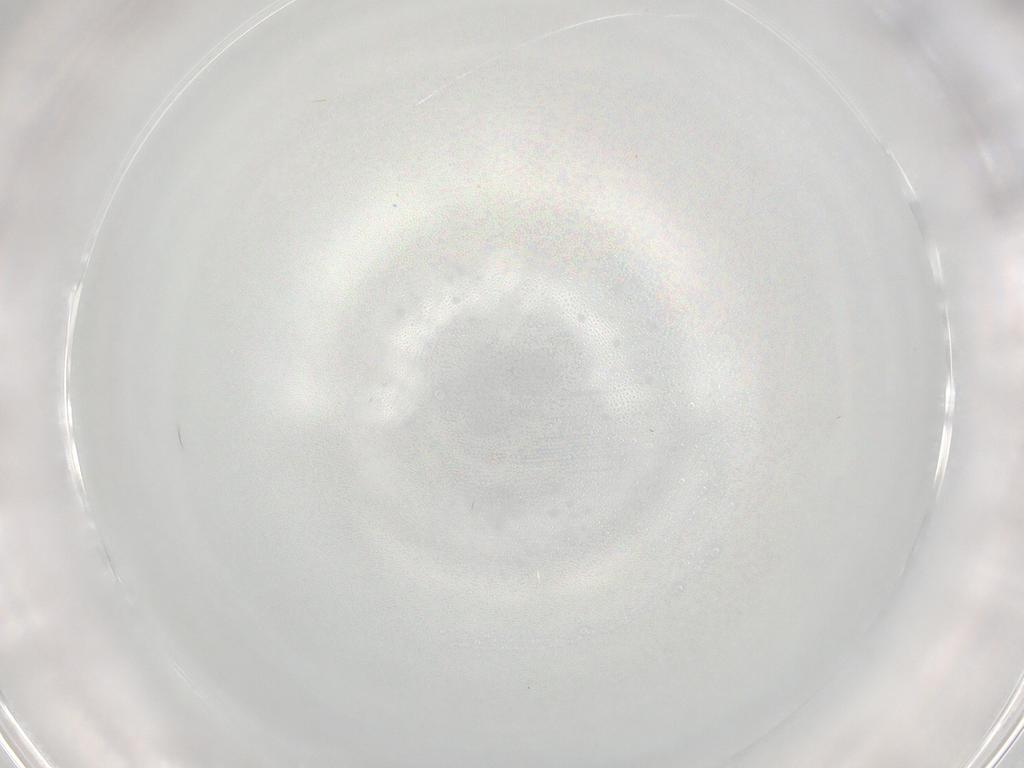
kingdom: Animalia
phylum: Arthropoda
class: Insecta
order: Diptera
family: Cecidomyiidae
